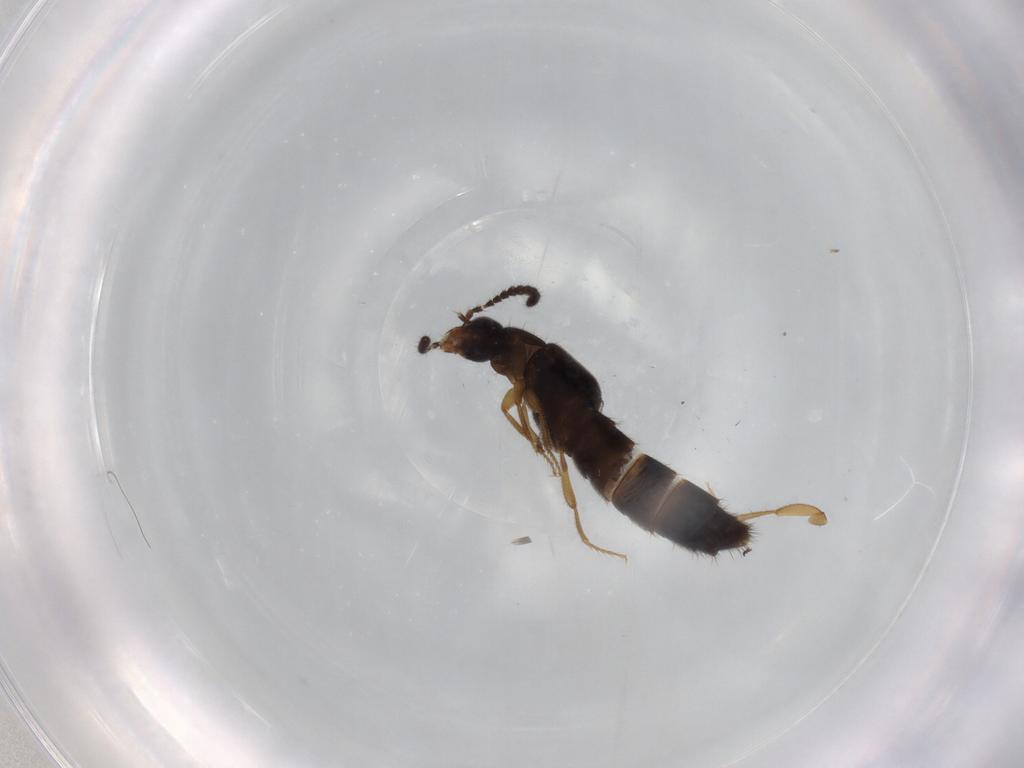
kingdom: Animalia
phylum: Arthropoda
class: Insecta
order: Coleoptera
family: Staphylinidae
